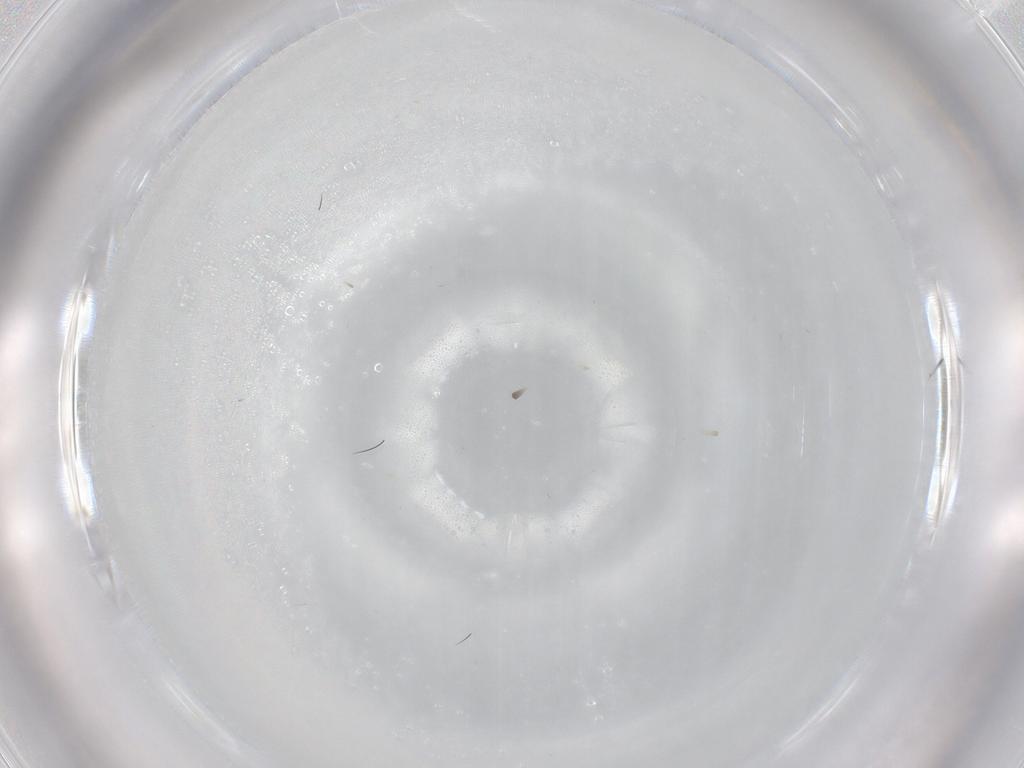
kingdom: Animalia
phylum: Arthropoda
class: Insecta
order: Diptera
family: Cecidomyiidae
